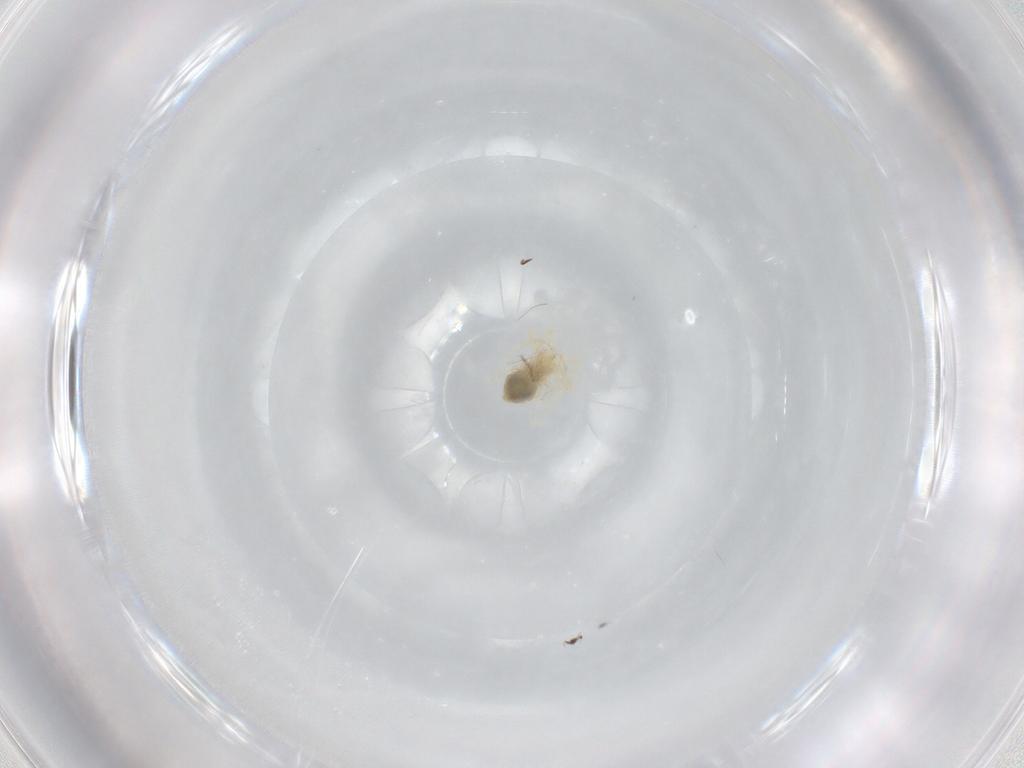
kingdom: Animalia
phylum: Arthropoda
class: Arachnida
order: Trombidiformes
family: Anystidae
